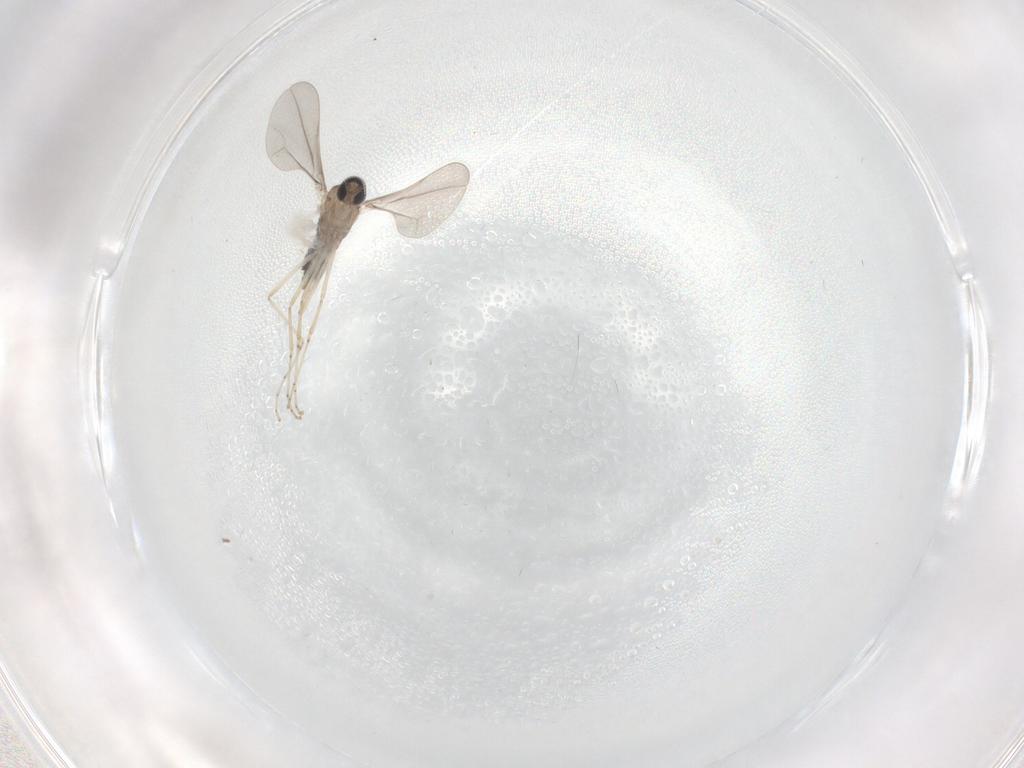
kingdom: Animalia
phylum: Arthropoda
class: Insecta
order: Diptera
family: Cecidomyiidae
